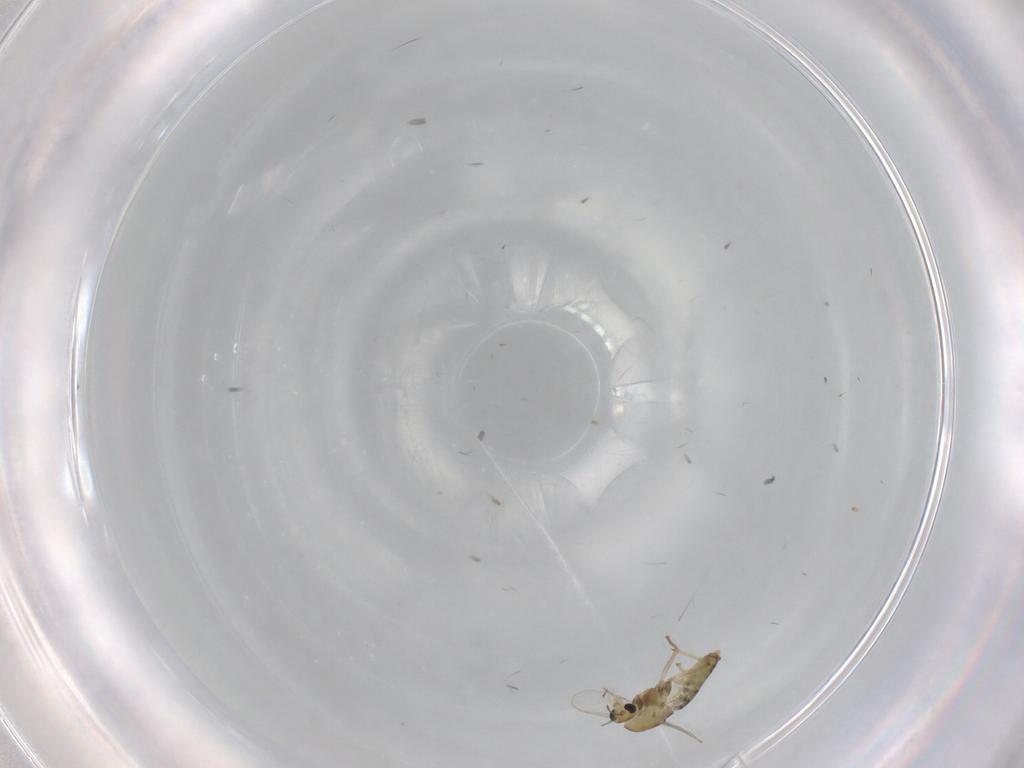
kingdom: Animalia
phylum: Arthropoda
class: Insecta
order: Diptera
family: Chironomidae
